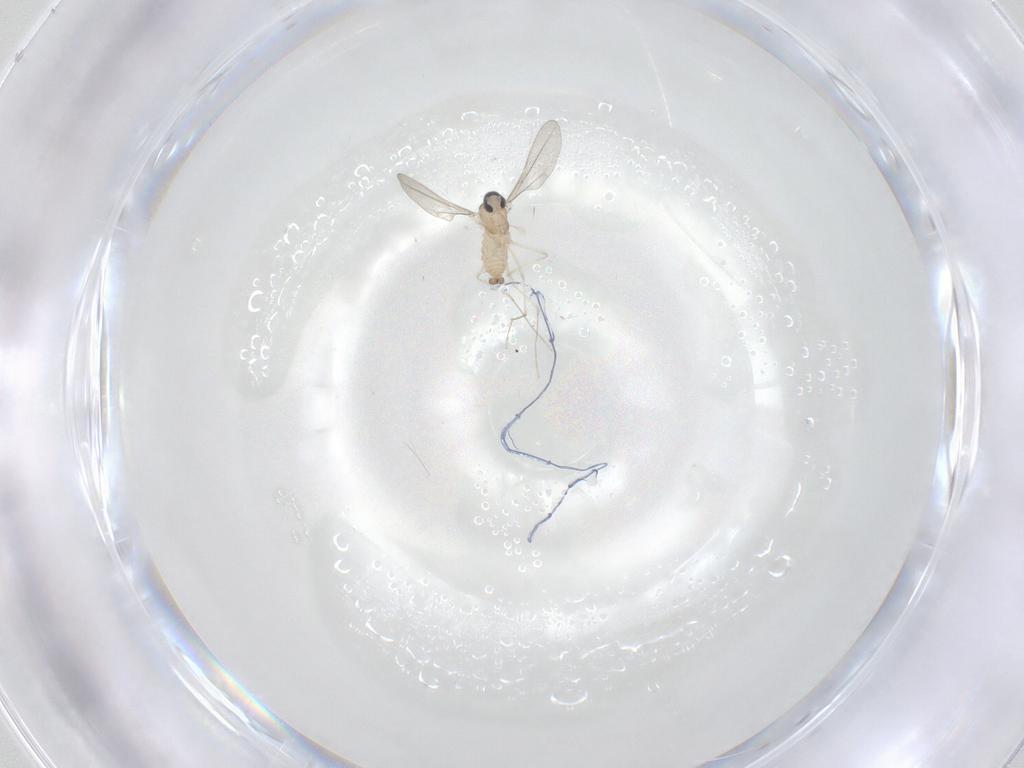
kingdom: Animalia
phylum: Arthropoda
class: Insecta
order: Diptera
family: Cecidomyiidae
